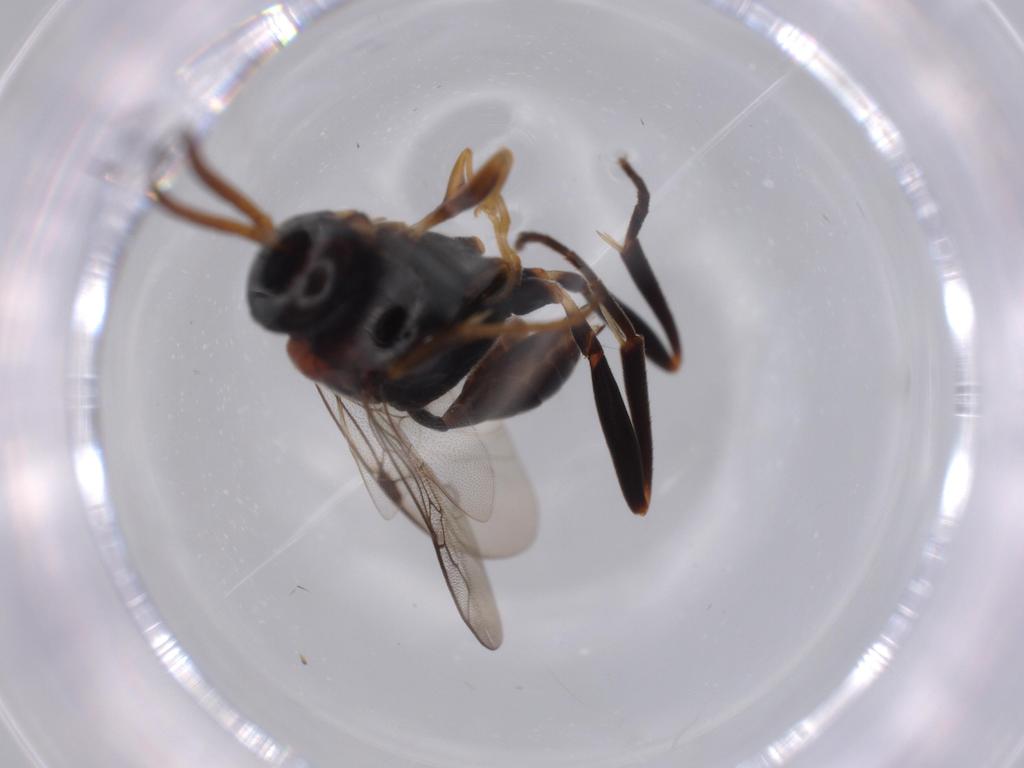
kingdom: Animalia
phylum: Arthropoda
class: Insecta
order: Hymenoptera
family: Evaniidae
